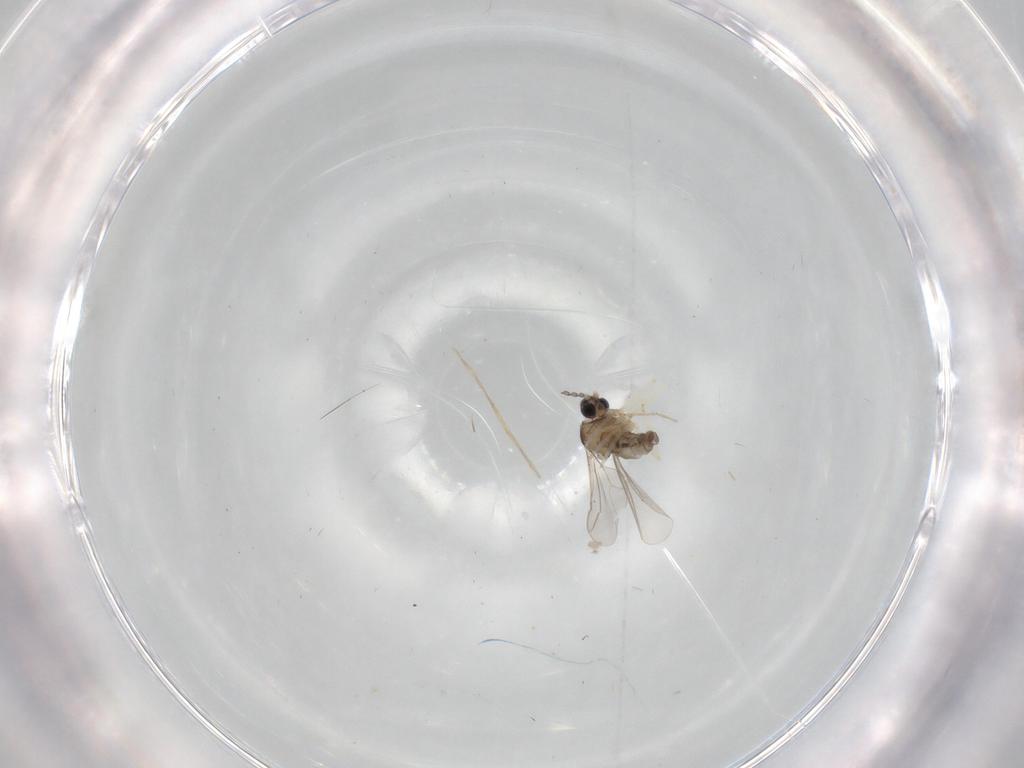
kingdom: Animalia
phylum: Arthropoda
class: Insecta
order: Diptera
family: Cecidomyiidae
